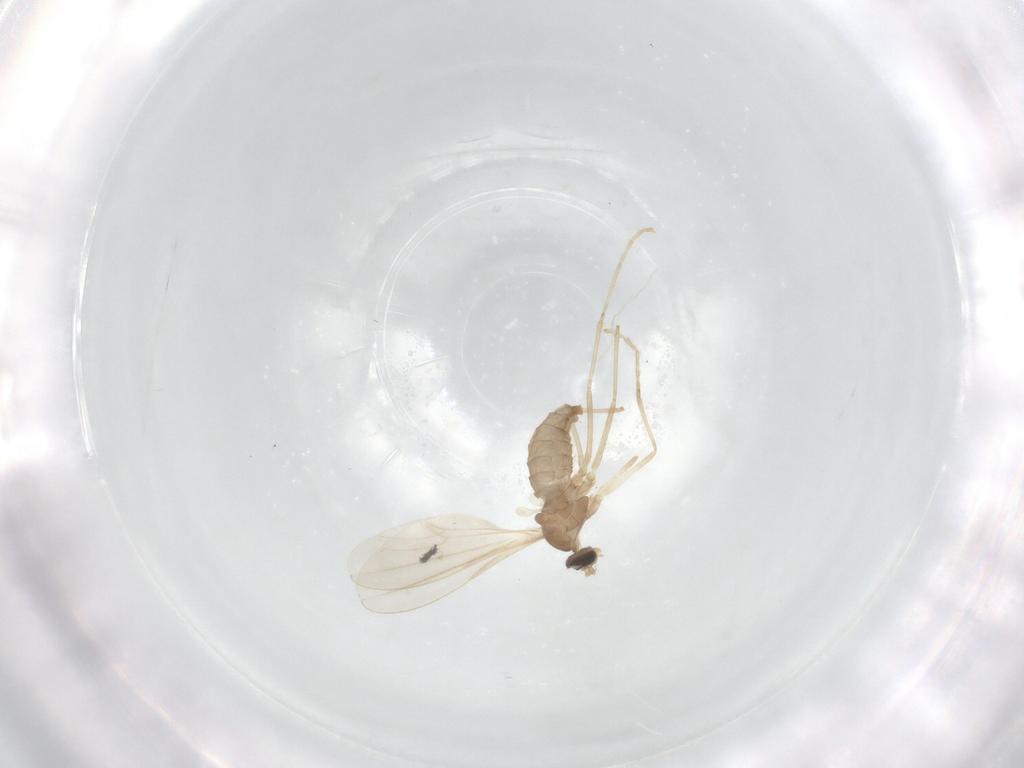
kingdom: Animalia
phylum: Arthropoda
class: Insecta
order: Diptera
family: Cecidomyiidae
